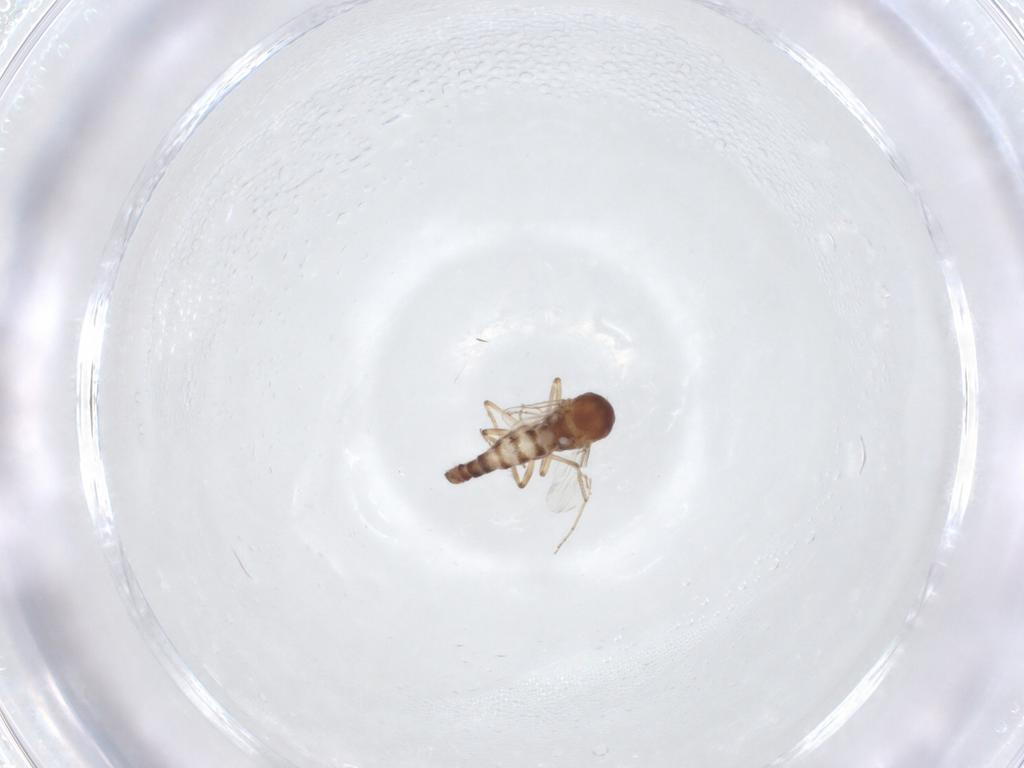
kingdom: Animalia
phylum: Arthropoda
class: Insecta
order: Diptera
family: Ceratopogonidae
